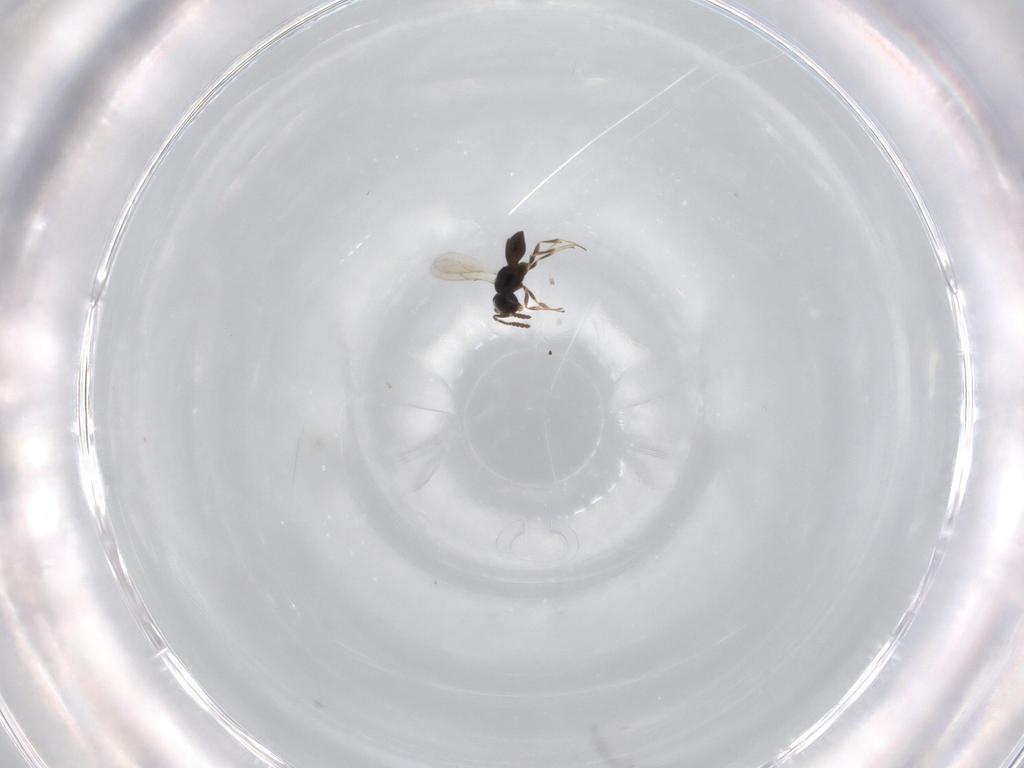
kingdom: Animalia
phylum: Arthropoda
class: Insecta
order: Hymenoptera
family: Scelionidae
